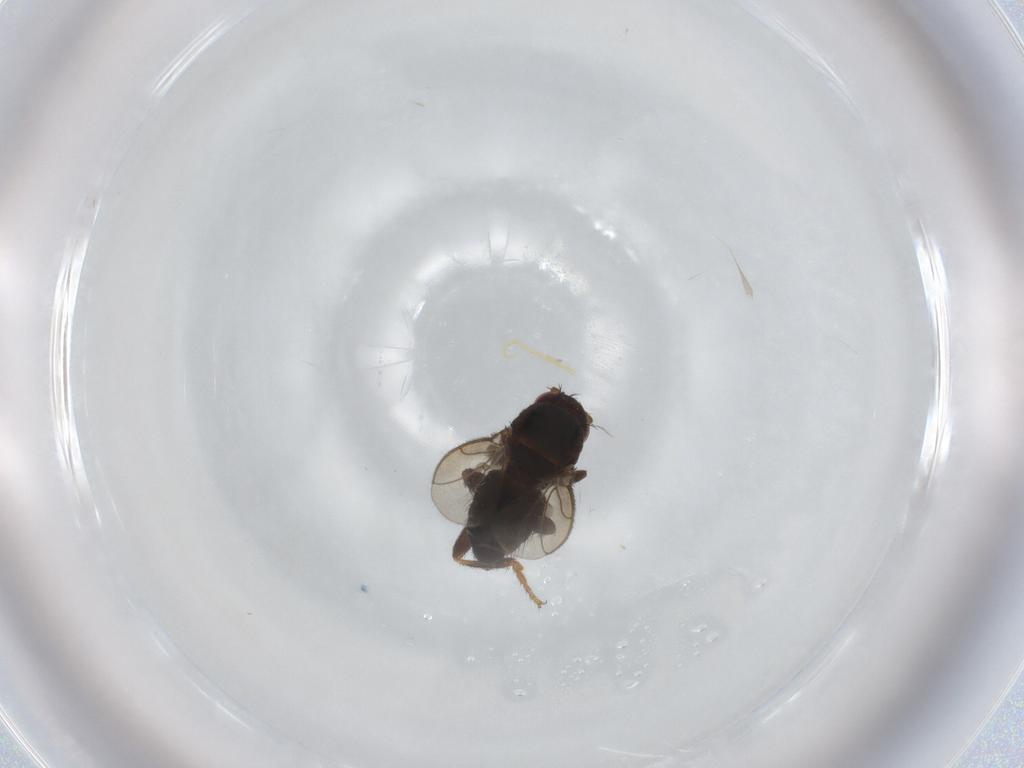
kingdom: Animalia
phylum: Arthropoda
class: Insecta
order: Diptera
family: Sphaeroceridae
